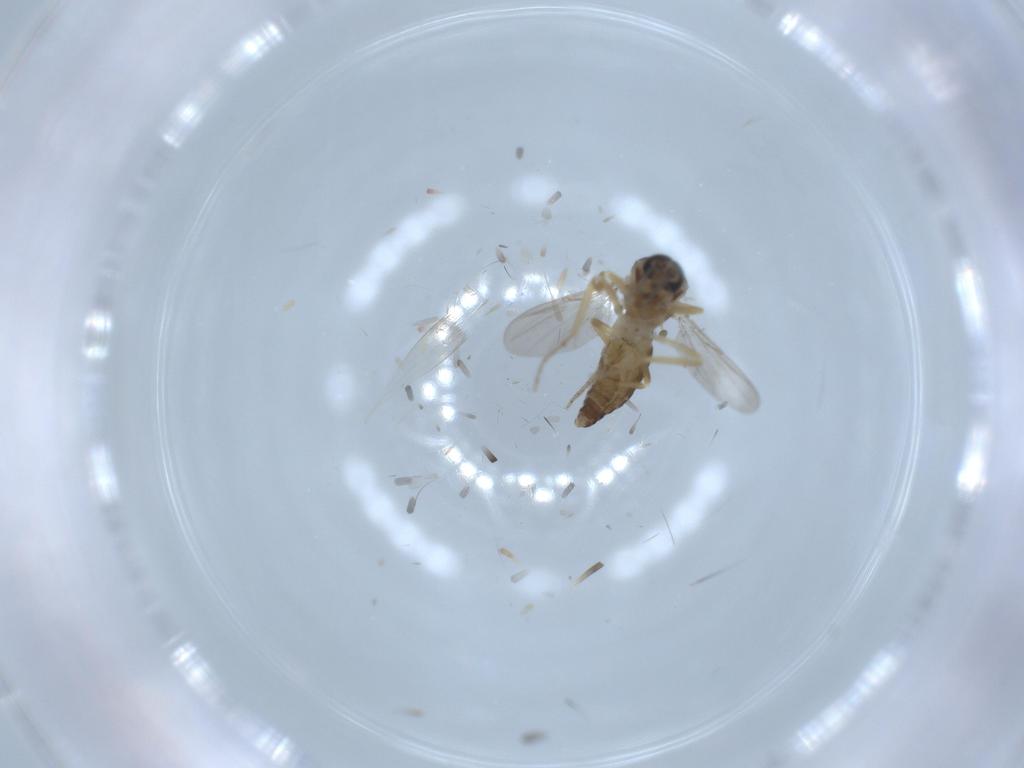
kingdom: Animalia
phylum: Arthropoda
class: Insecta
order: Diptera
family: Ceratopogonidae
